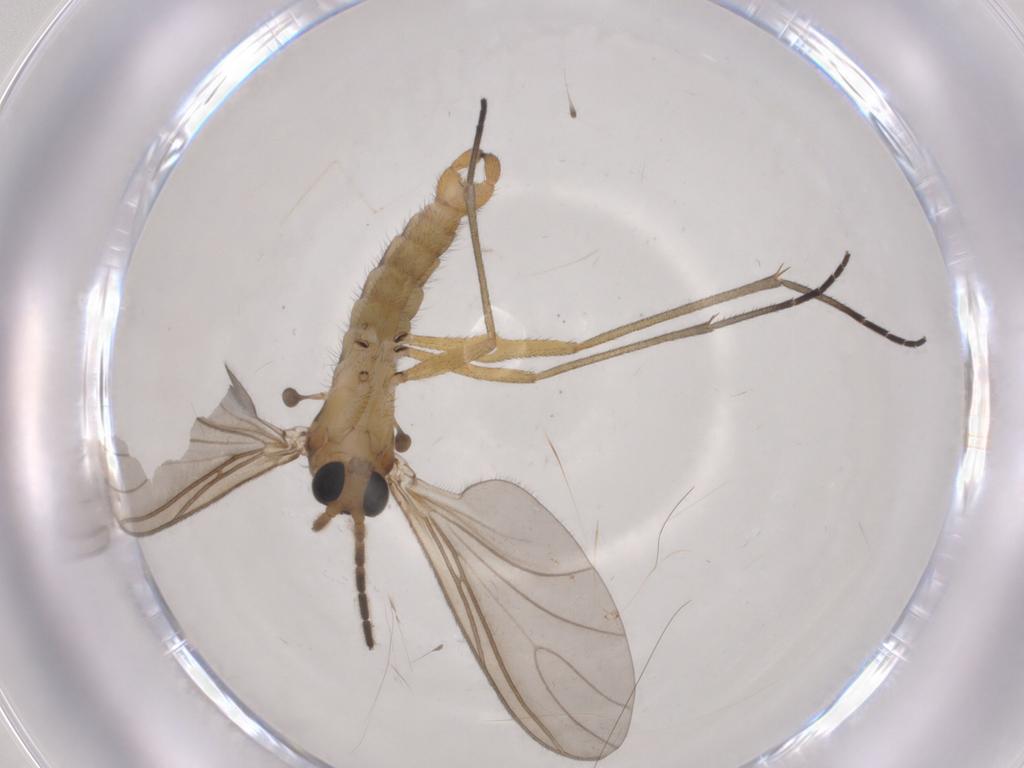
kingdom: Animalia
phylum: Arthropoda
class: Insecta
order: Diptera
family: Sciaridae
